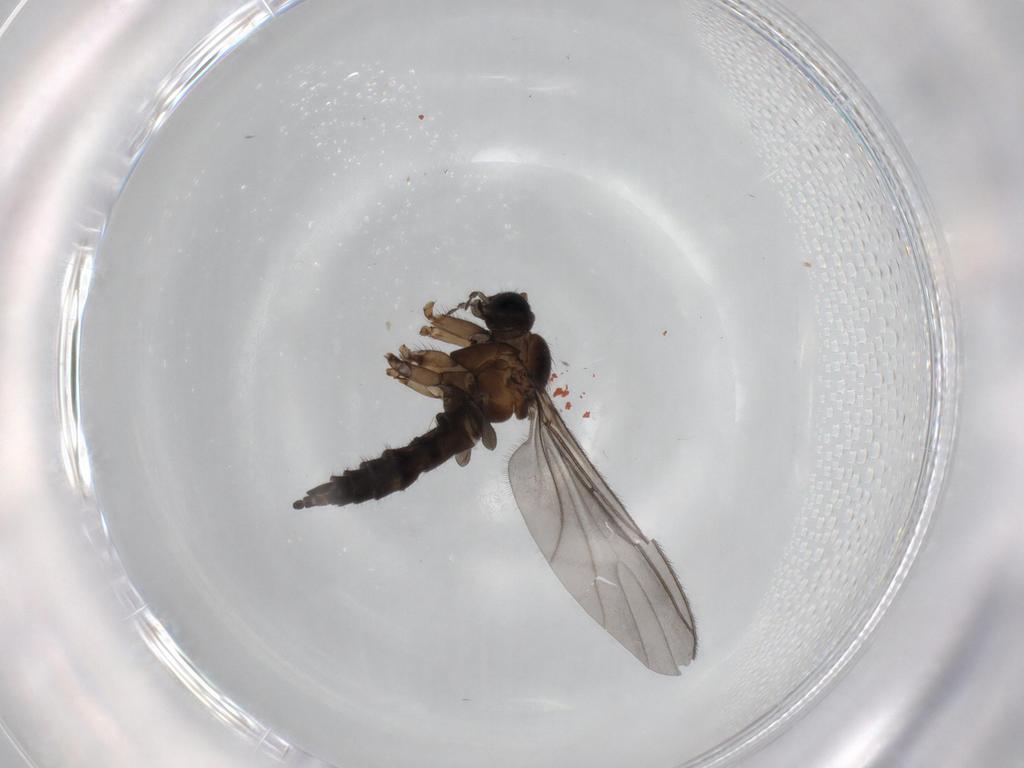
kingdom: Animalia
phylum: Arthropoda
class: Insecta
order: Diptera
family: Sciaridae
